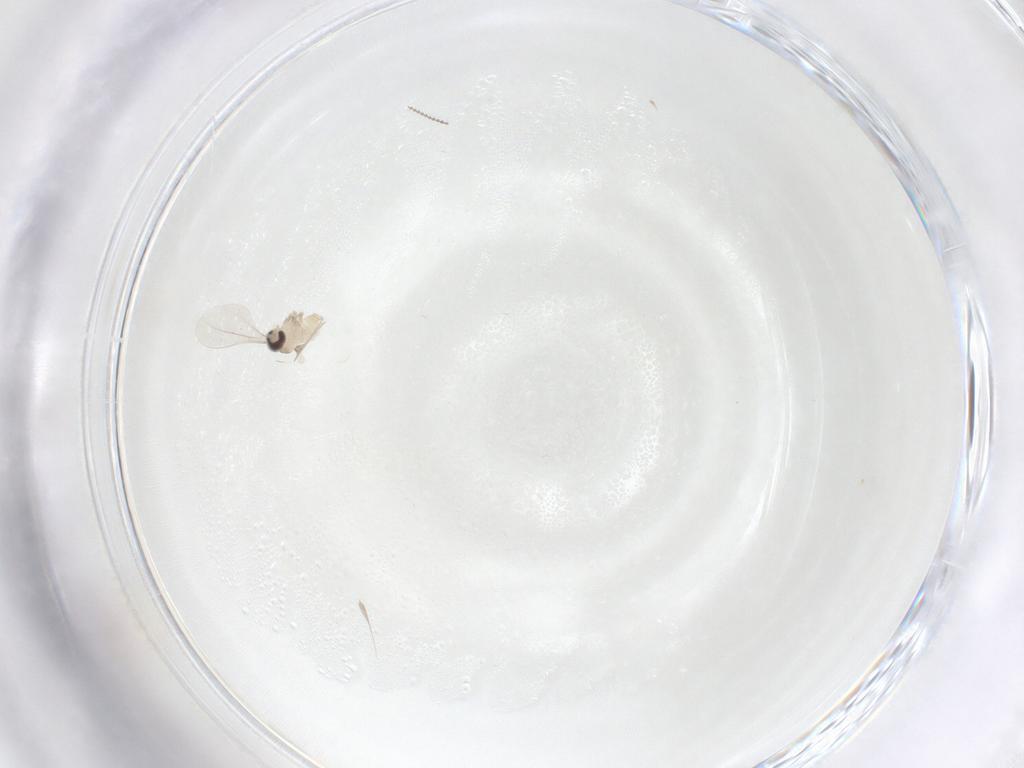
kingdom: Animalia
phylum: Arthropoda
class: Insecta
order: Diptera
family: Cecidomyiidae
